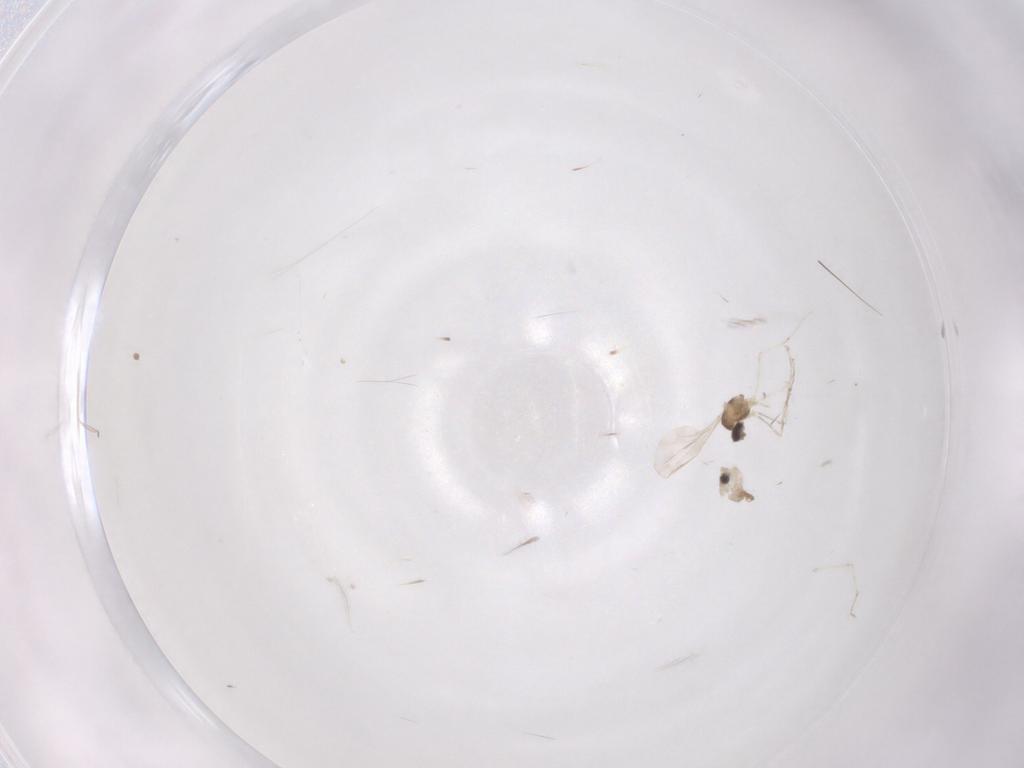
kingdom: Animalia
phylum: Arthropoda
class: Insecta
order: Diptera
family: Cecidomyiidae
